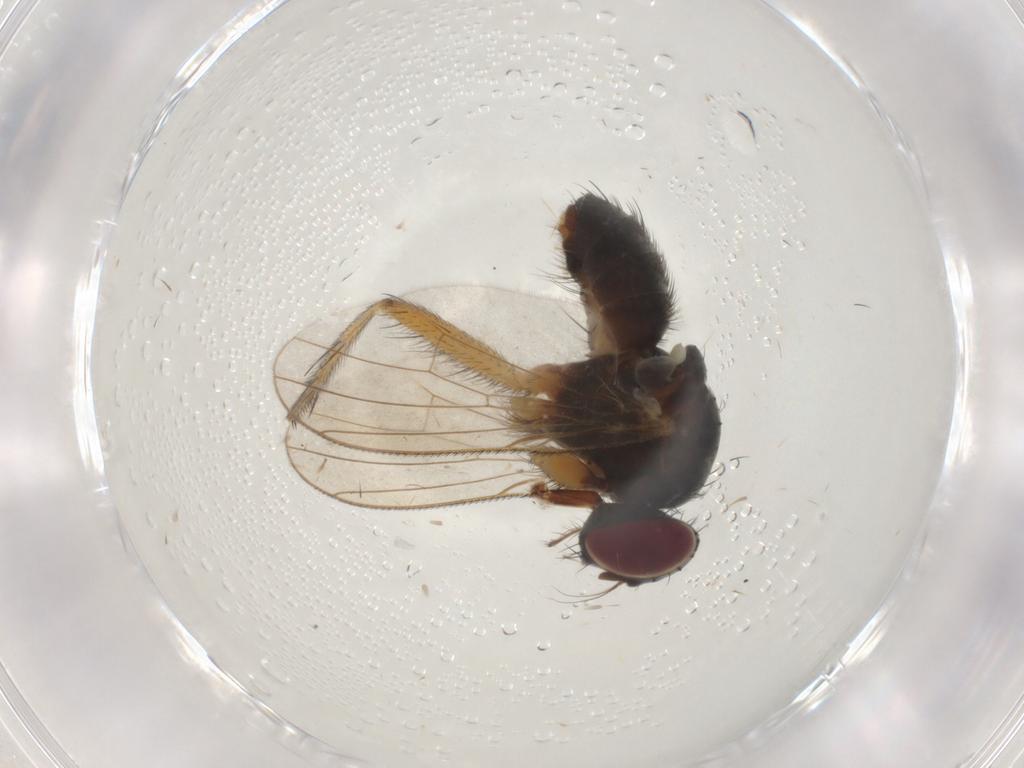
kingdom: Animalia
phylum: Arthropoda
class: Insecta
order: Diptera
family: Muscidae
